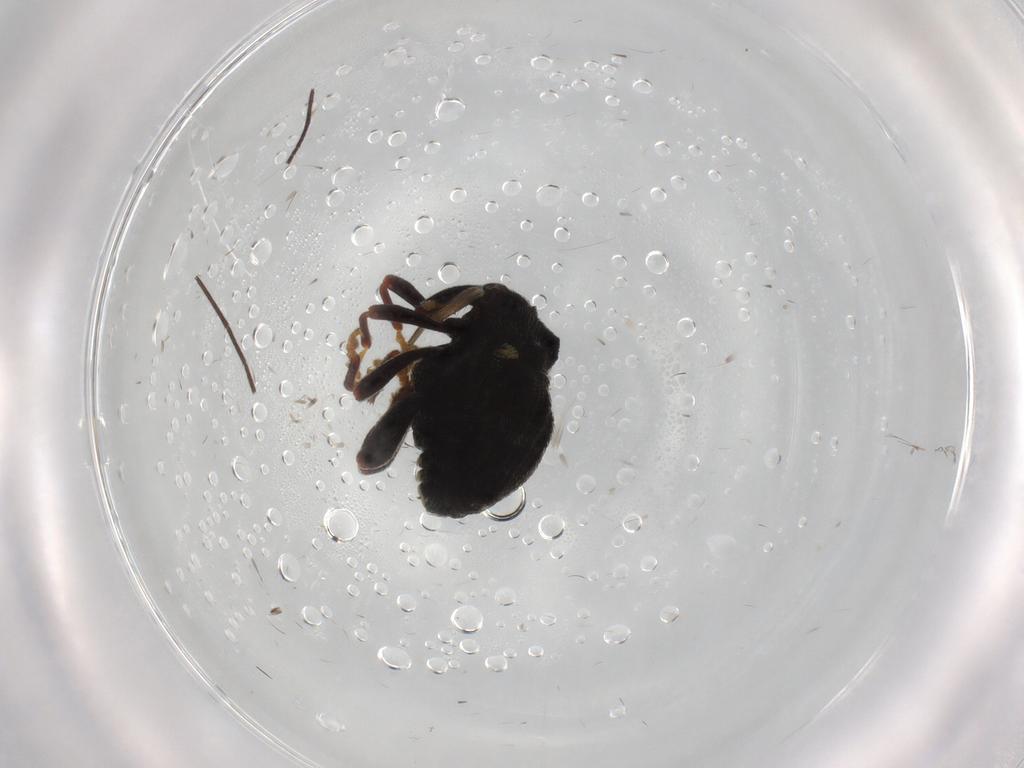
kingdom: Animalia
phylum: Arthropoda
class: Insecta
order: Coleoptera
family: Curculionidae
